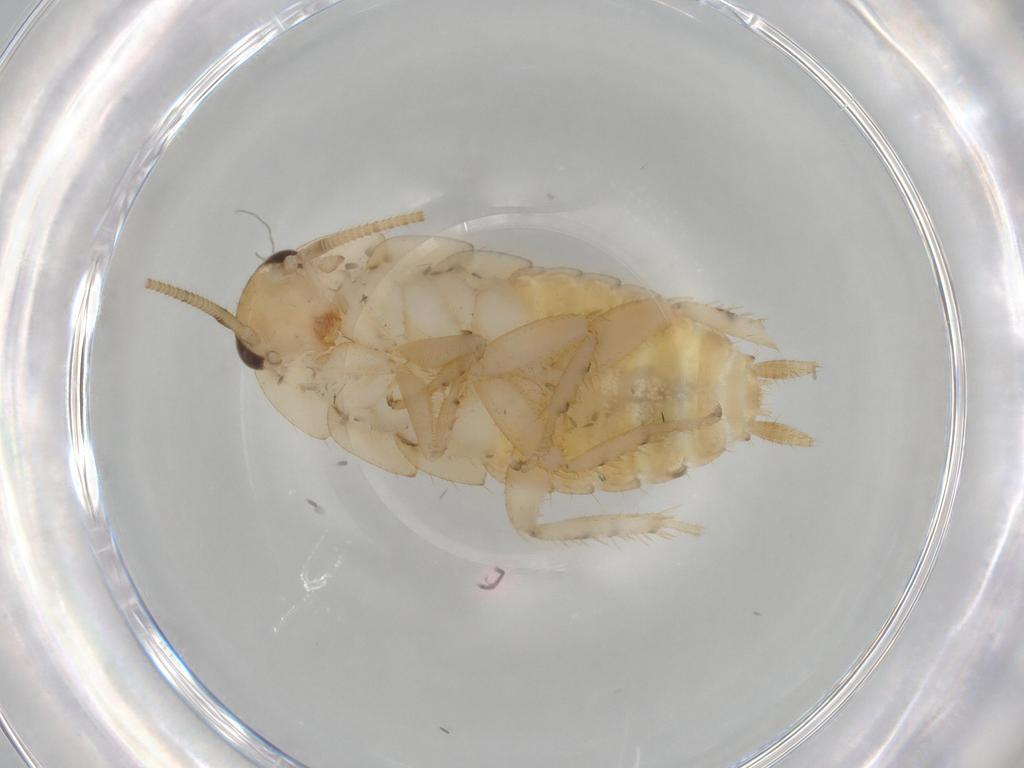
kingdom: Animalia
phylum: Arthropoda
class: Insecta
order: Blattodea
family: Ectobiidae
